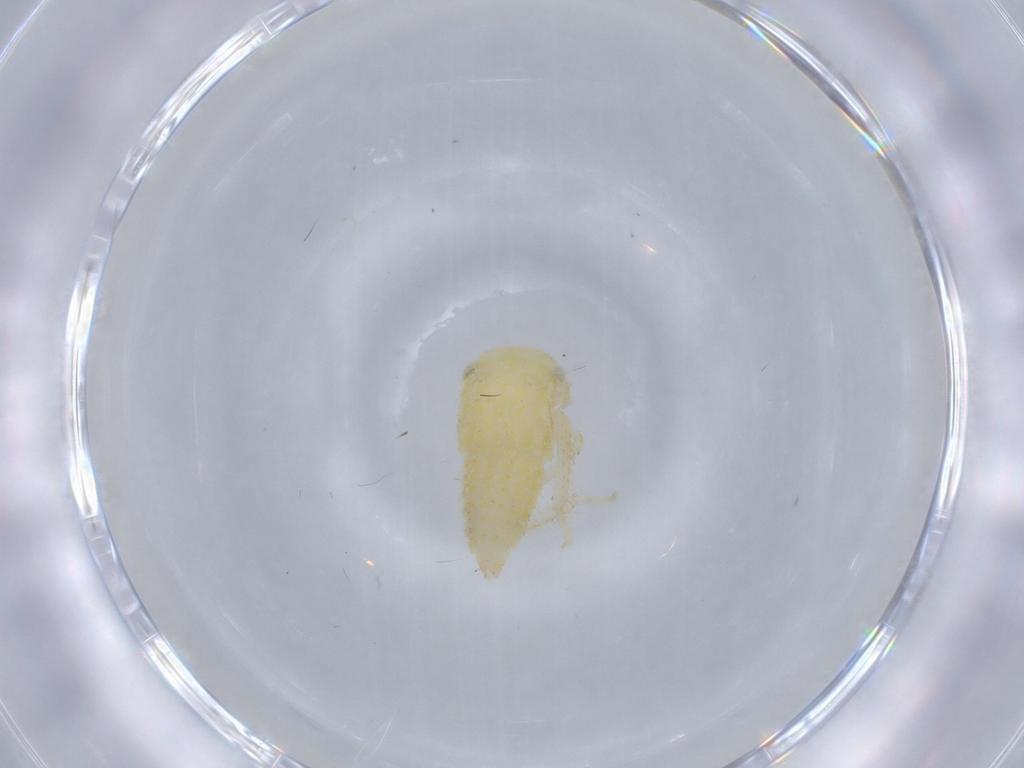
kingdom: Animalia
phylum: Arthropoda
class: Insecta
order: Hemiptera
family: Cicadellidae
